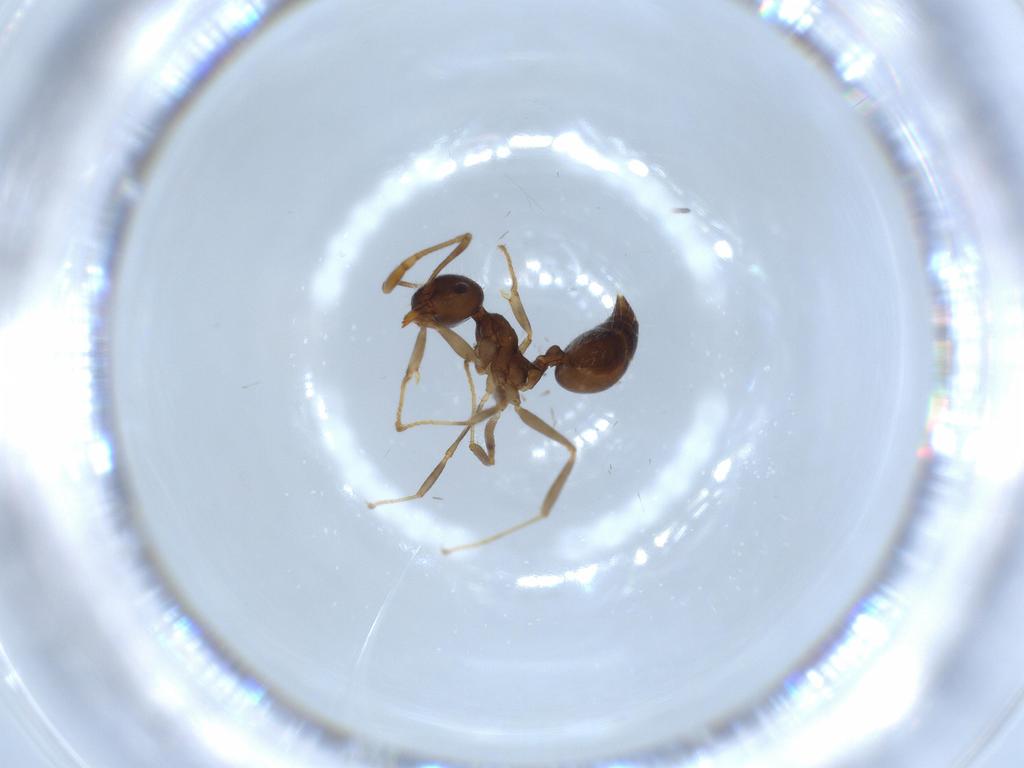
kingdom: Animalia
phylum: Arthropoda
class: Insecta
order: Hymenoptera
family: Formicidae
